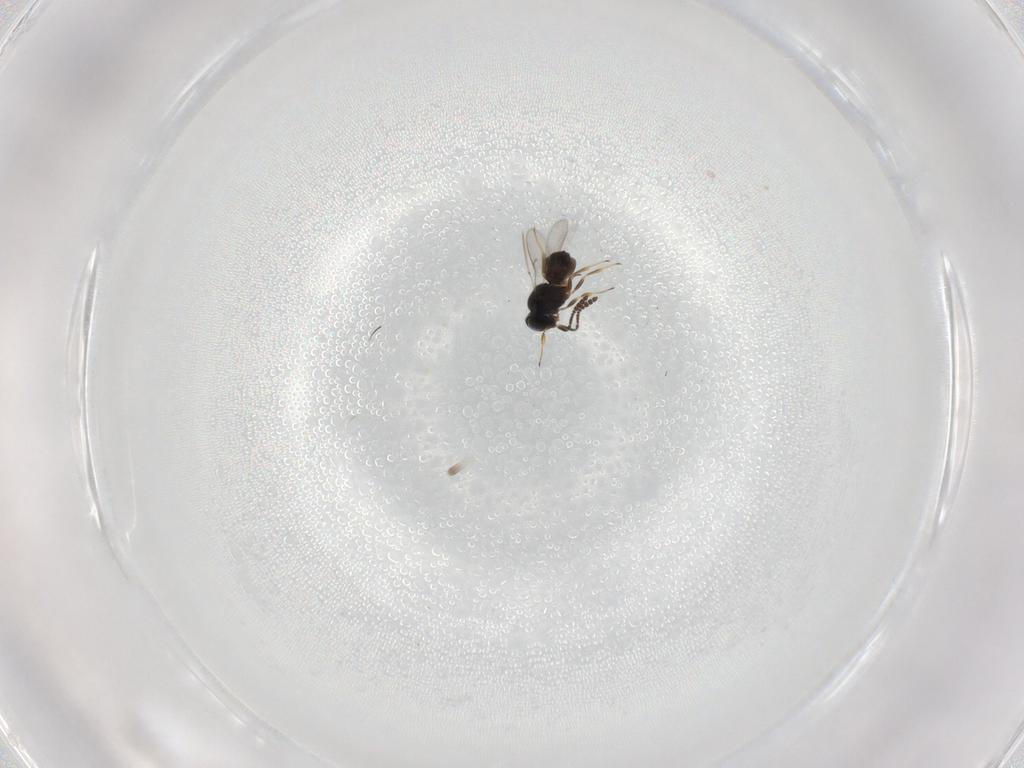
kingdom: Animalia
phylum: Arthropoda
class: Insecta
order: Hymenoptera
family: Scelionidae
